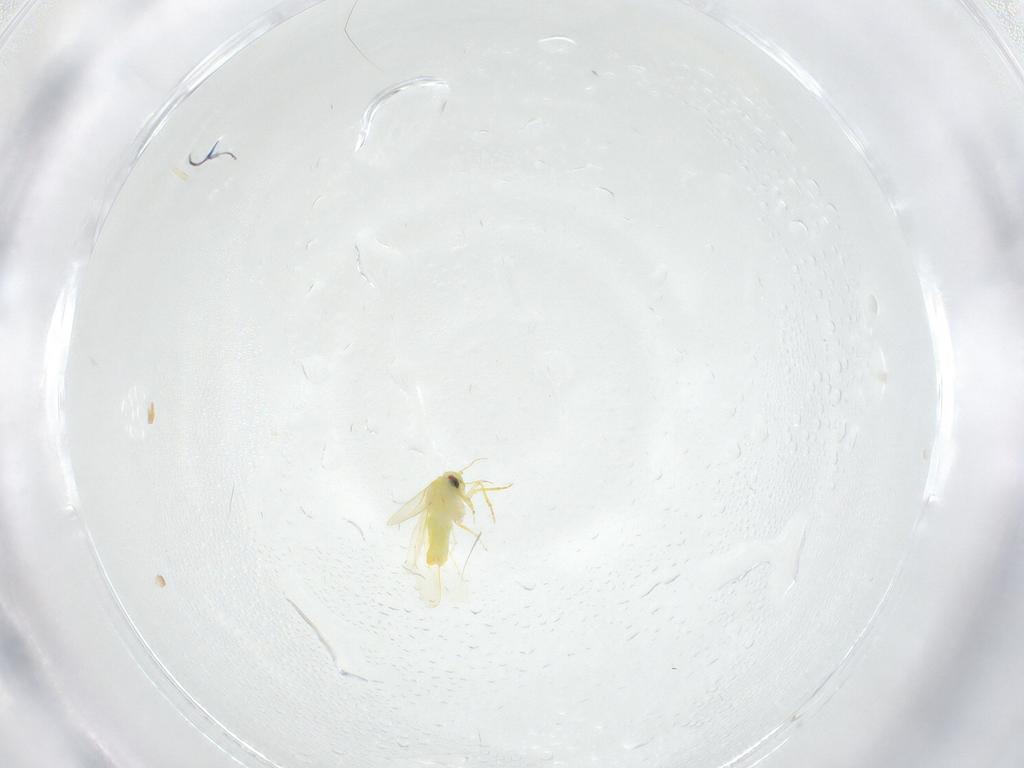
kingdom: Animalia
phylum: Arthropoda
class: Insecta
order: Hemiptera
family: Aleyrodidae
